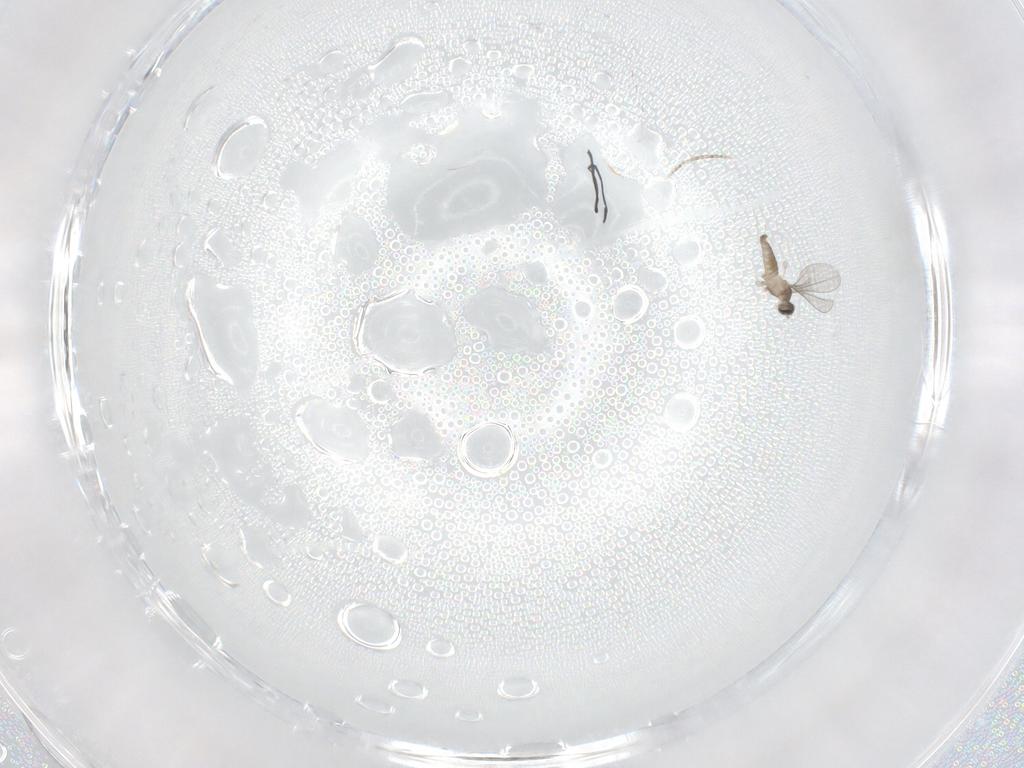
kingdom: Animalia
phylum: Arthropoda
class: Insecta
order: Diptera
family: Cecidomyiidae
